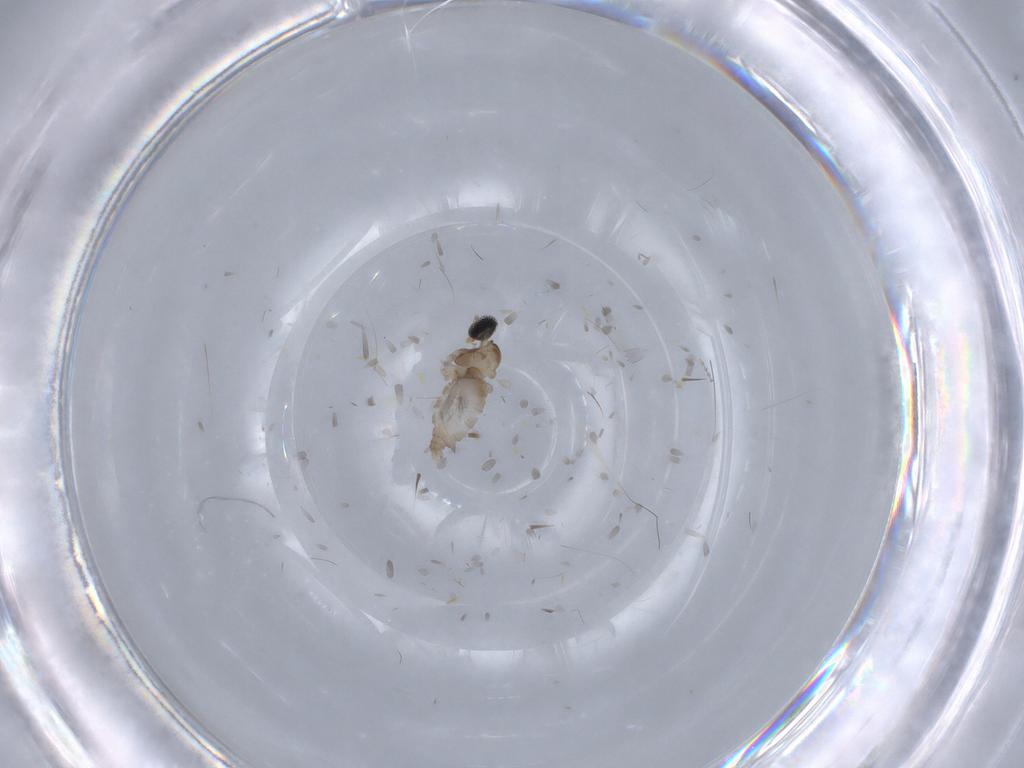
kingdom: Animalia
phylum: Arthropoda
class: Insecta
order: Diptera
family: Syrphidae
